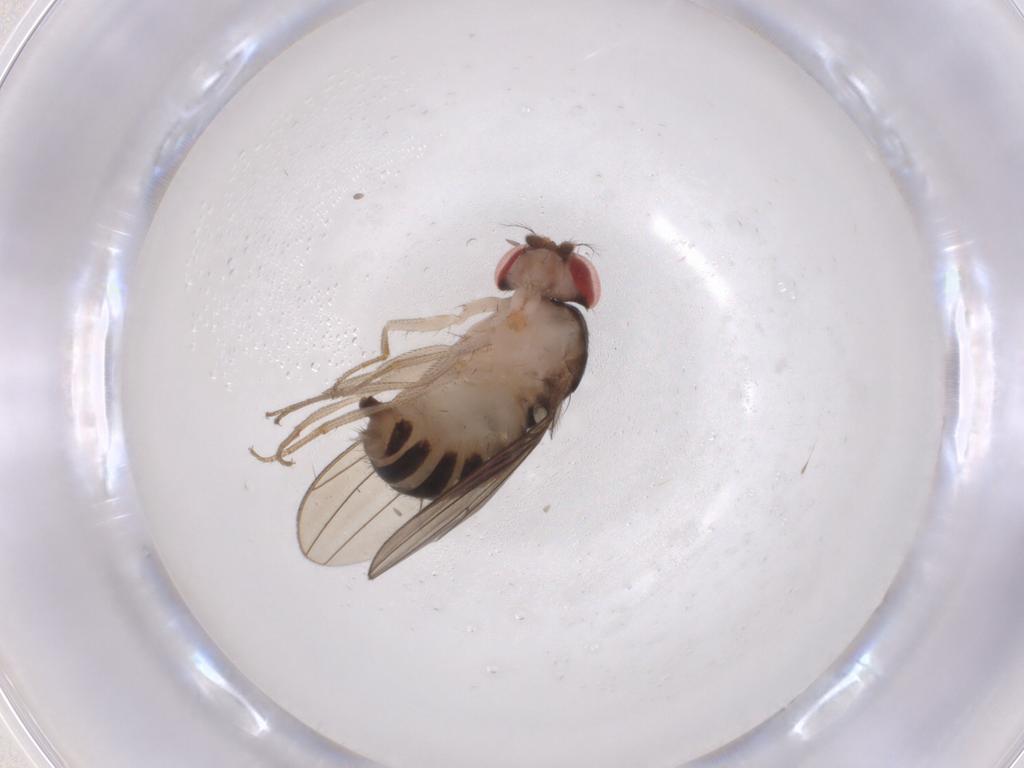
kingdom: Animalia
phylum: Arthropoda
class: Insecta
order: Diptera
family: Drosophilidae
